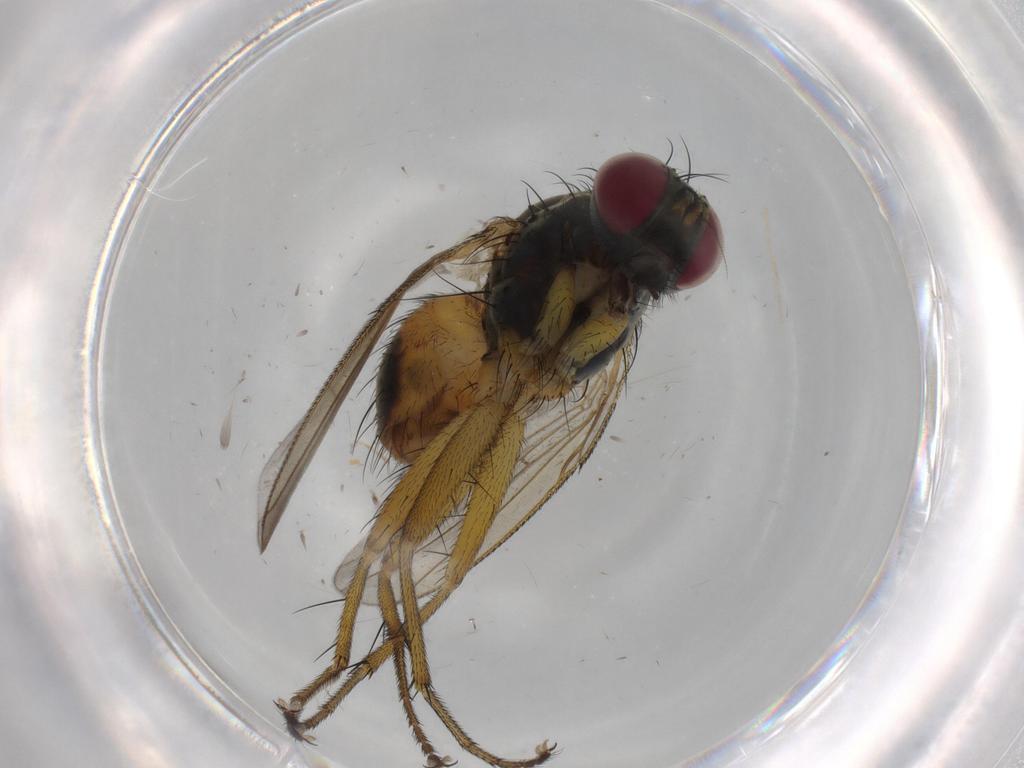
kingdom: Animalia
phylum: Arthropoda
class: Insecta
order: Diptera
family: Muscidae
